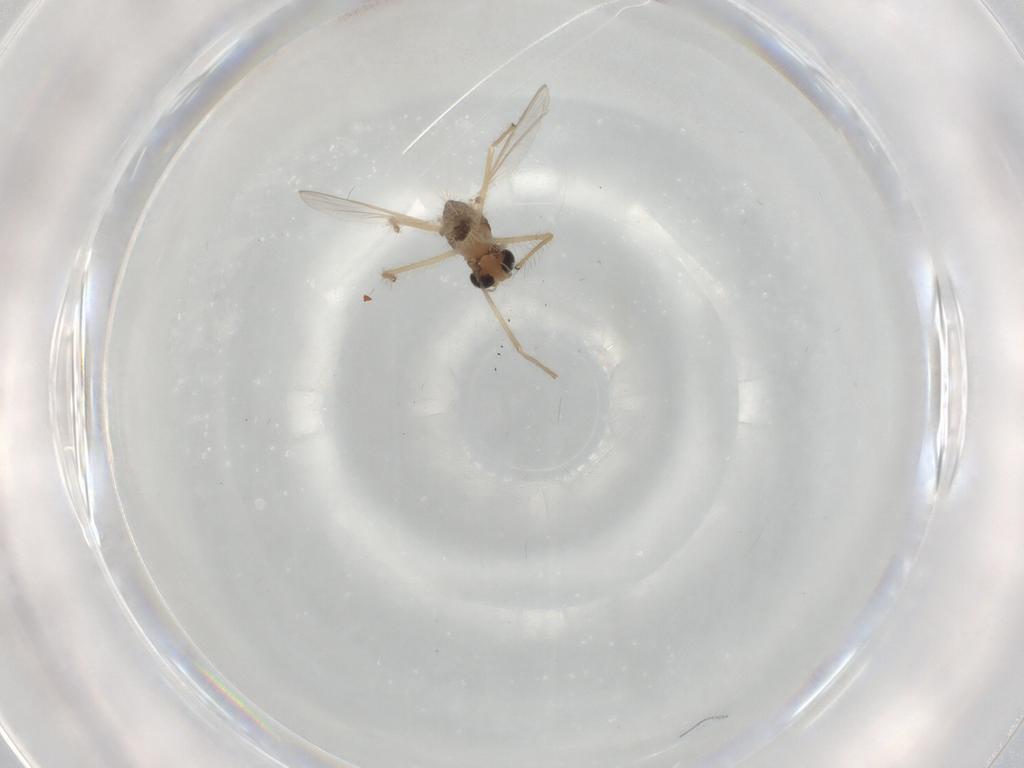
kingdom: Animalia
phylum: Arthropoda
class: Insecta
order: Diptera
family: Chironomidae
